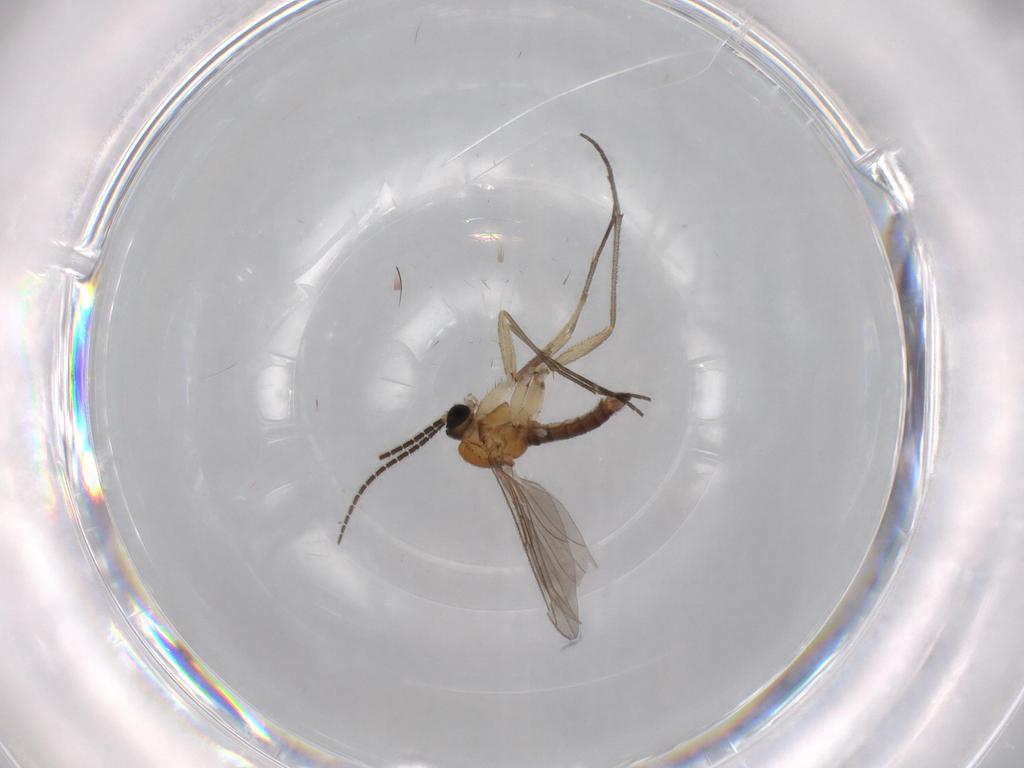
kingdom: Animalia
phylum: Arthropoda
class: Insecta
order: Diptera
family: Sciaridae
